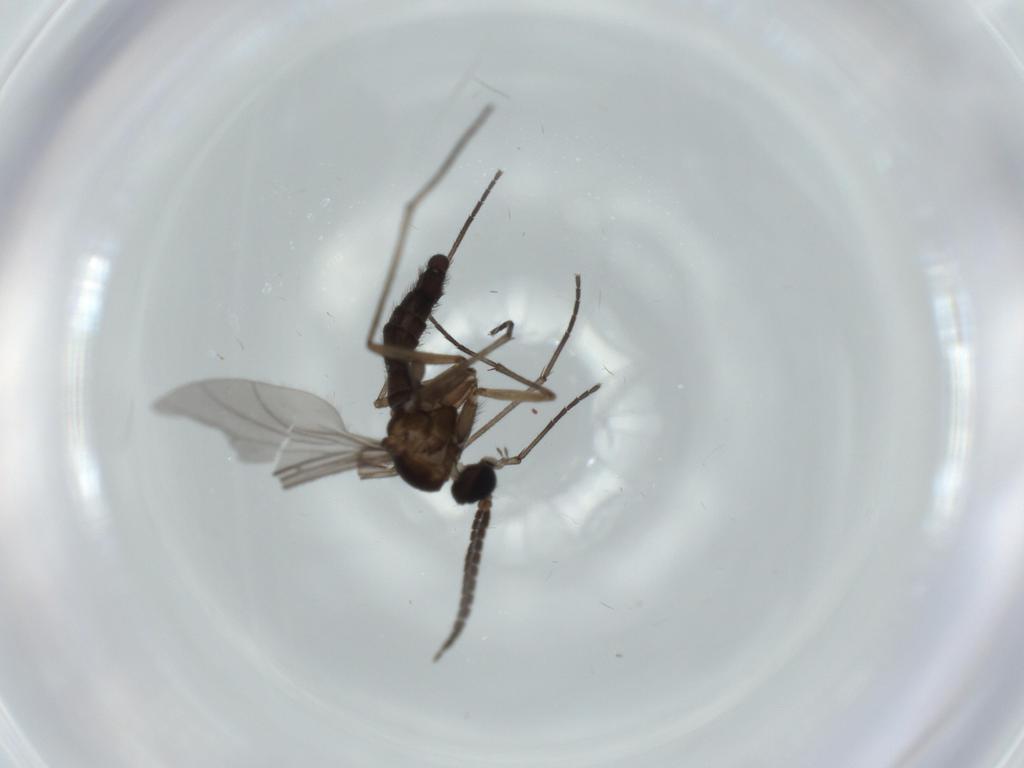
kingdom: Animalia
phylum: Arthropoda
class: Insecta
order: Diptera
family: Sciaridae
